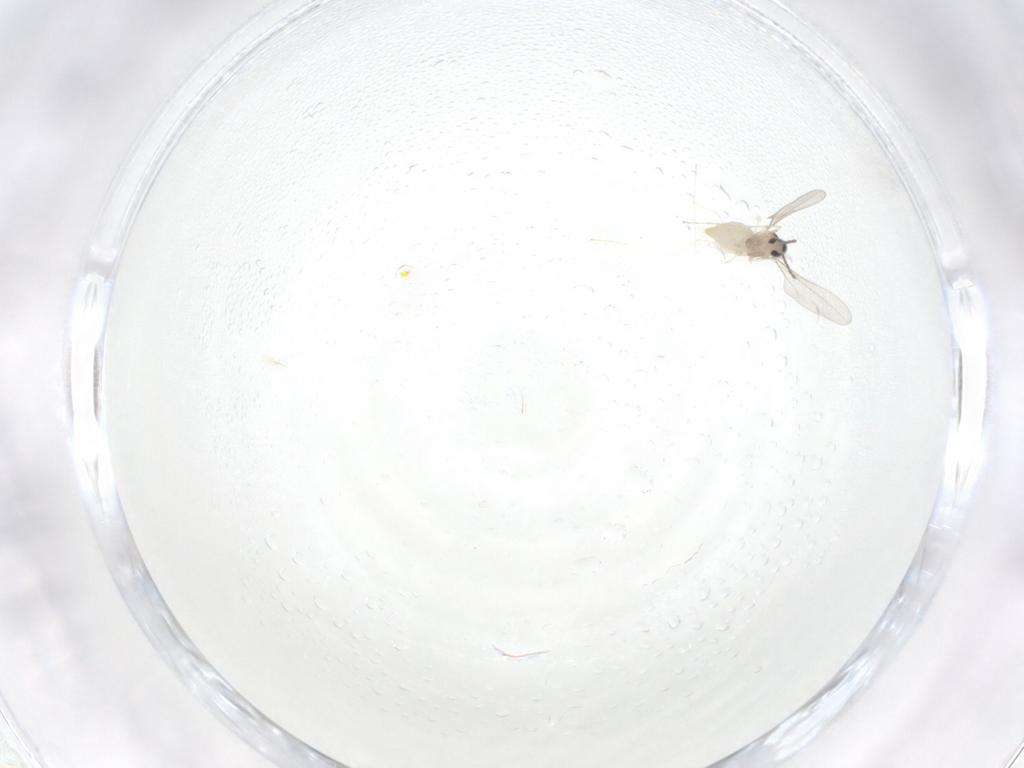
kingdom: Animalia
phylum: Arthropoda
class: Insecta
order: Diptera
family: Cecidomyiidae
